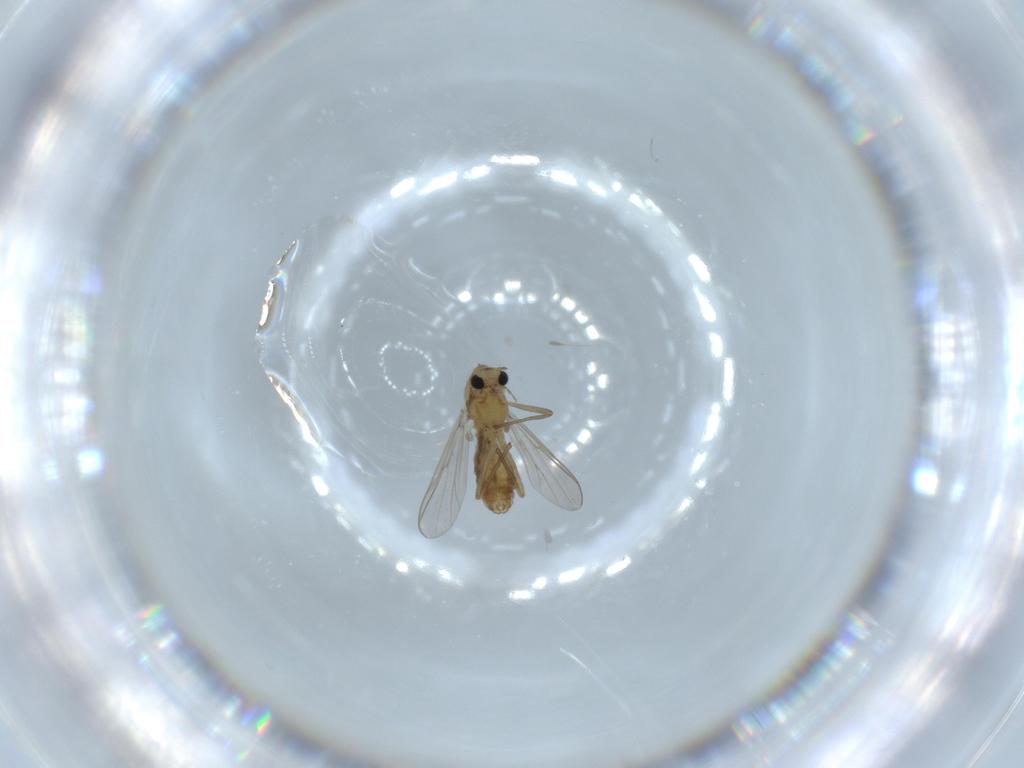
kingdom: Animalia
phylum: Arthropoda
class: Insecta
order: Diptera
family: Chironomidae
